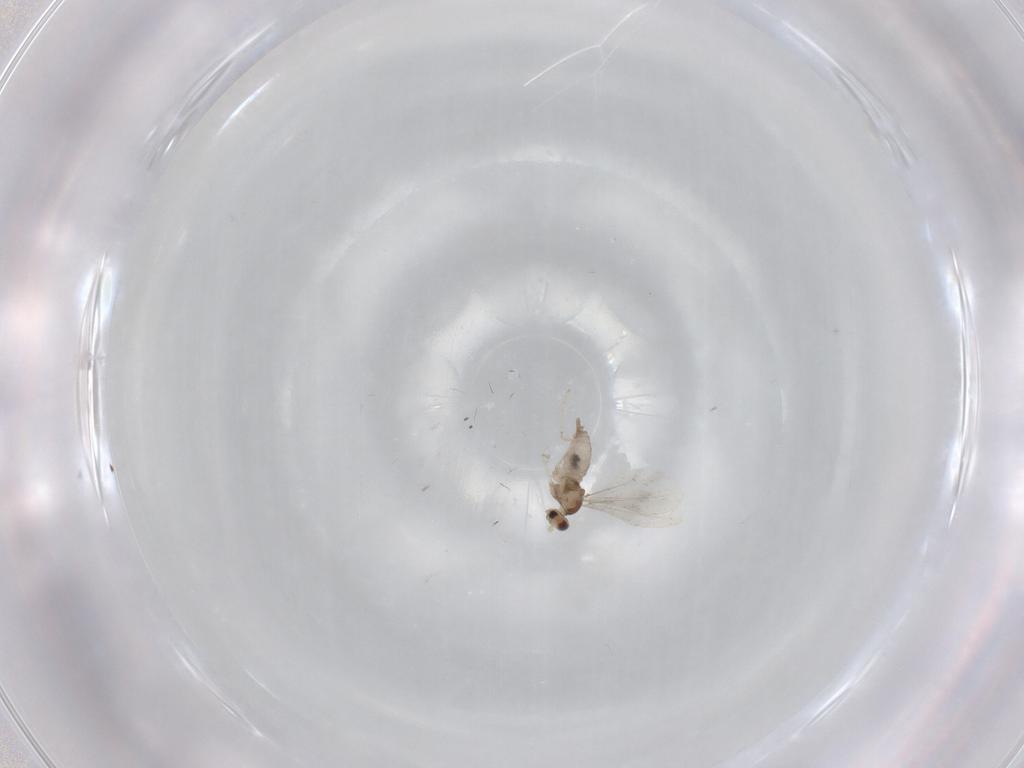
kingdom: Animalia
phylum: Arthropoda
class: Insecta
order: Diptera
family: Cecidomyiidae
